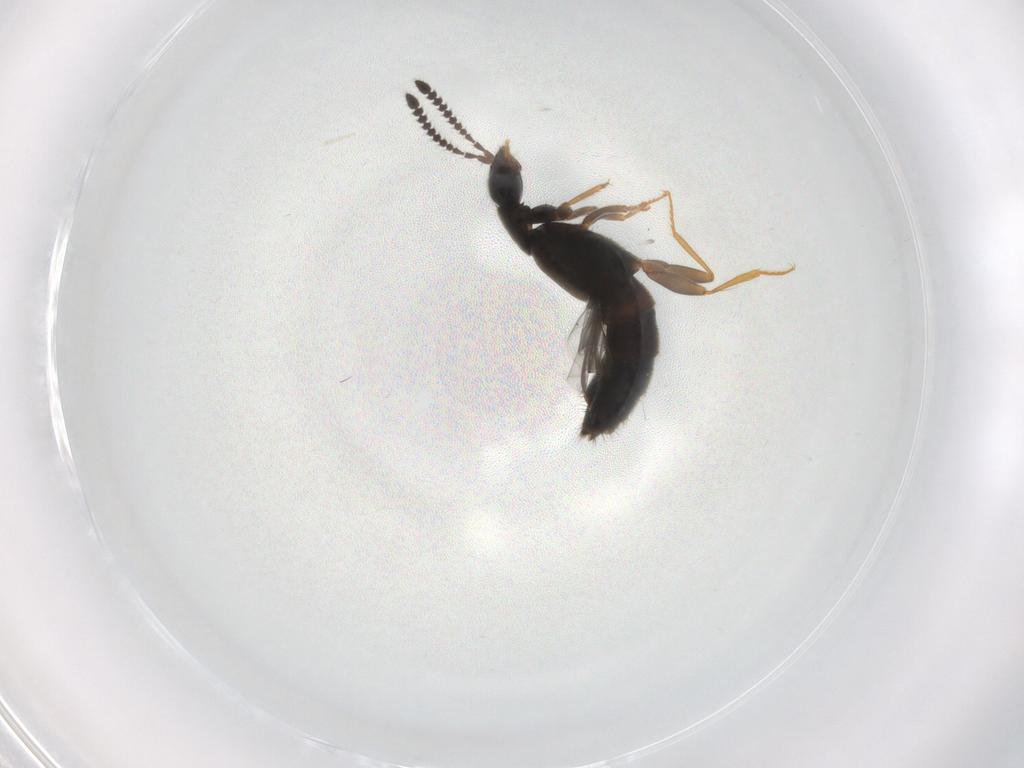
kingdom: Animalia
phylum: Arthropoda
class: Insecta
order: Coleoptera
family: Staphylinidae
